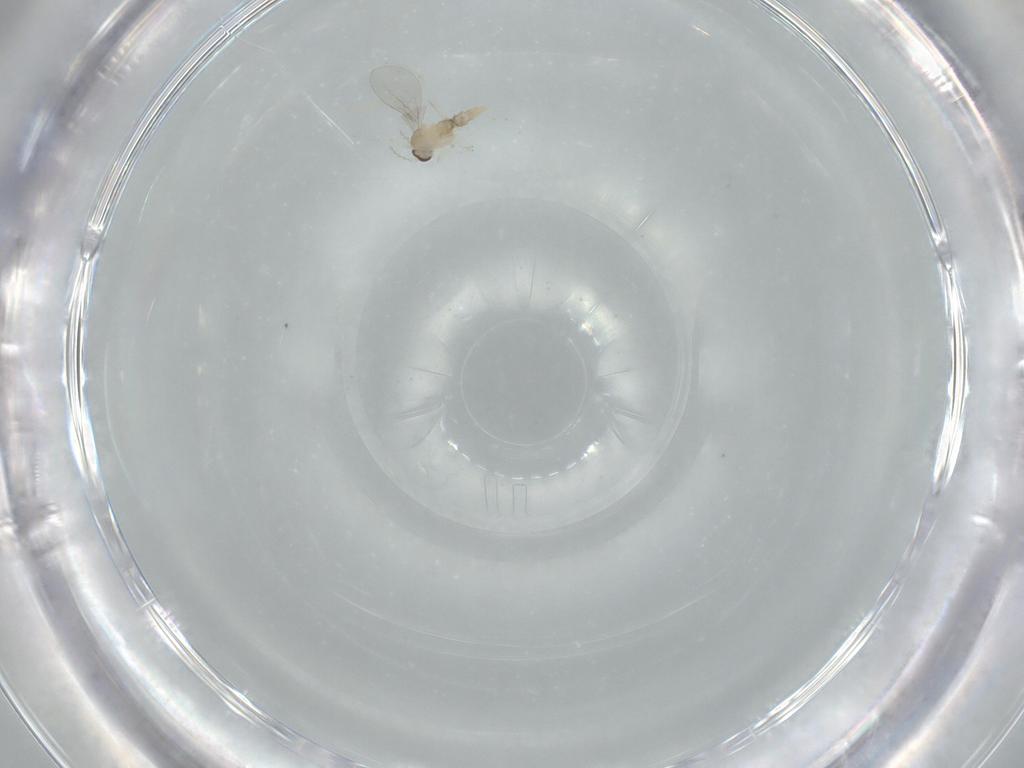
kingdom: Animalia
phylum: Arthropoda
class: Insecta
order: Diptera
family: Cecidomyiidae
